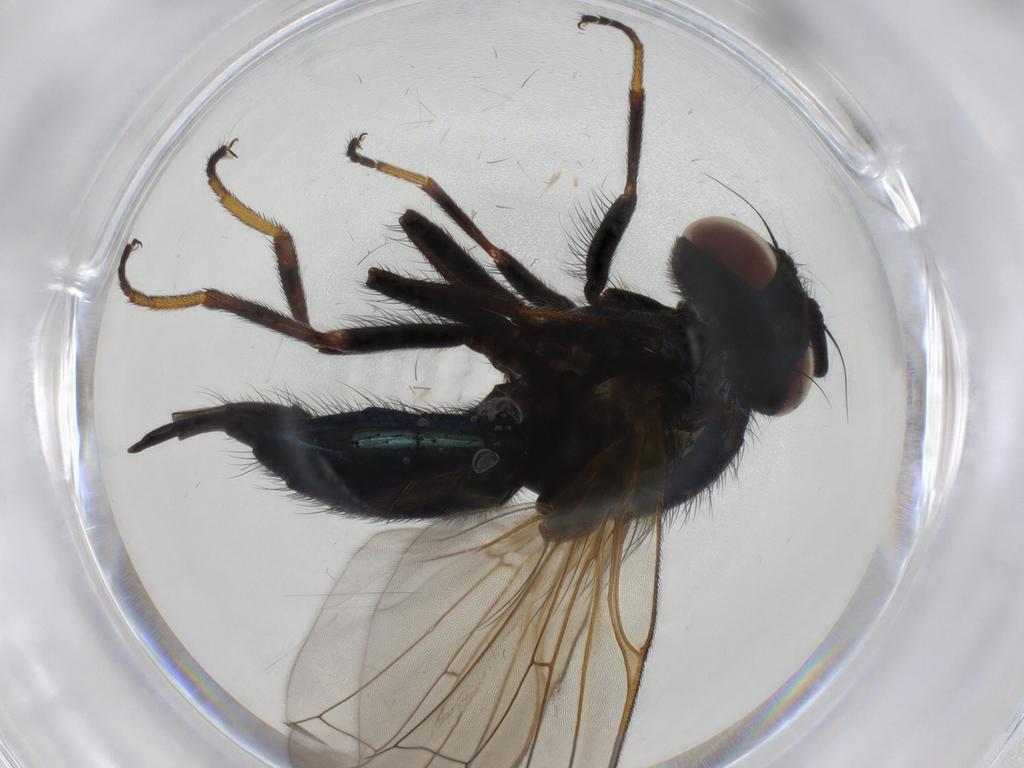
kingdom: Animalia
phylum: Arthropoda
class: Insecta
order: Diptera
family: Lonchaeidae
